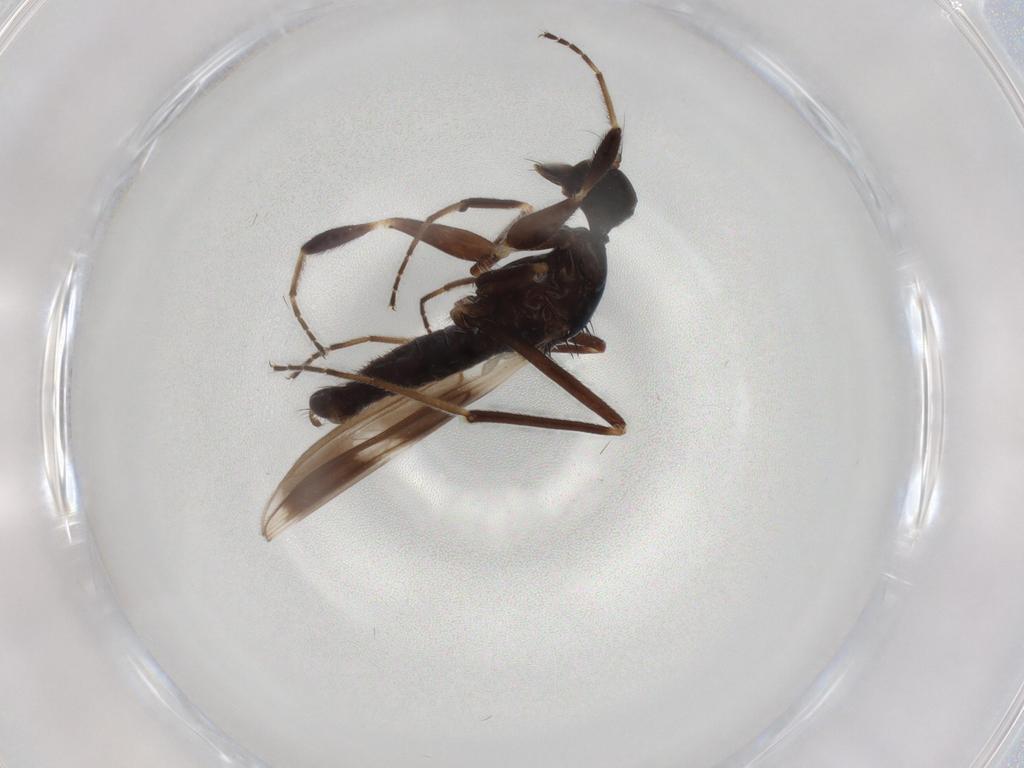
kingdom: Animalia
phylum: Arthropoda
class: Insecta
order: Diptera
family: Hybotidae
